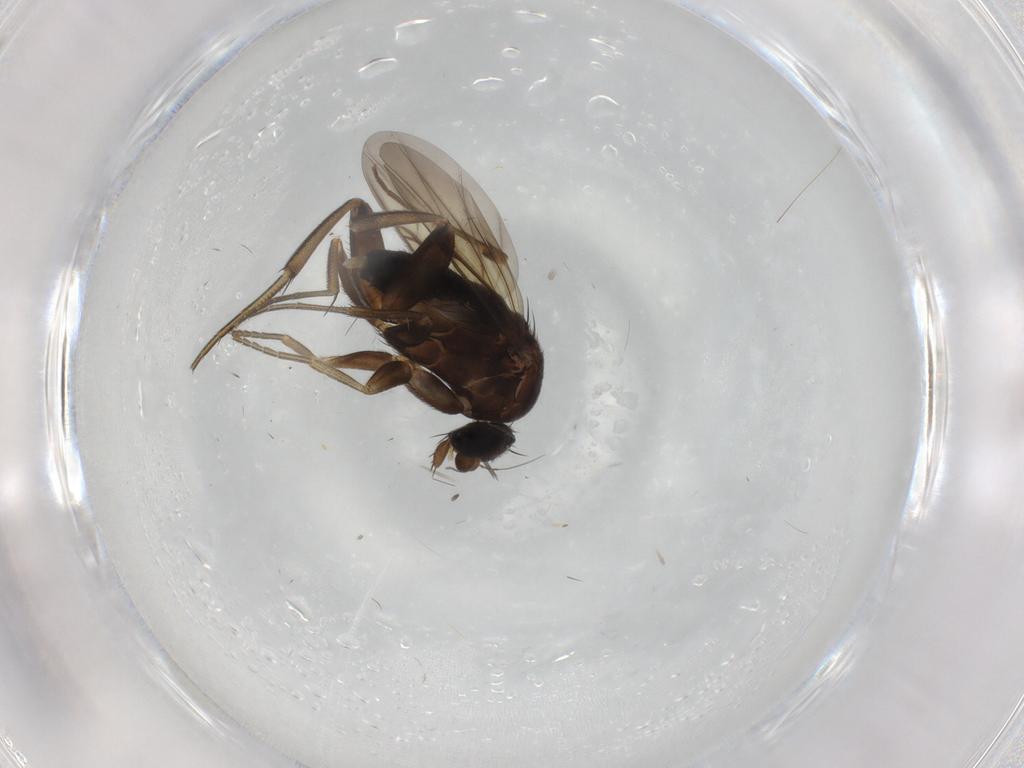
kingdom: Animalia
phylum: Arthropoda
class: Insecta
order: Diptera
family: Phoridae
